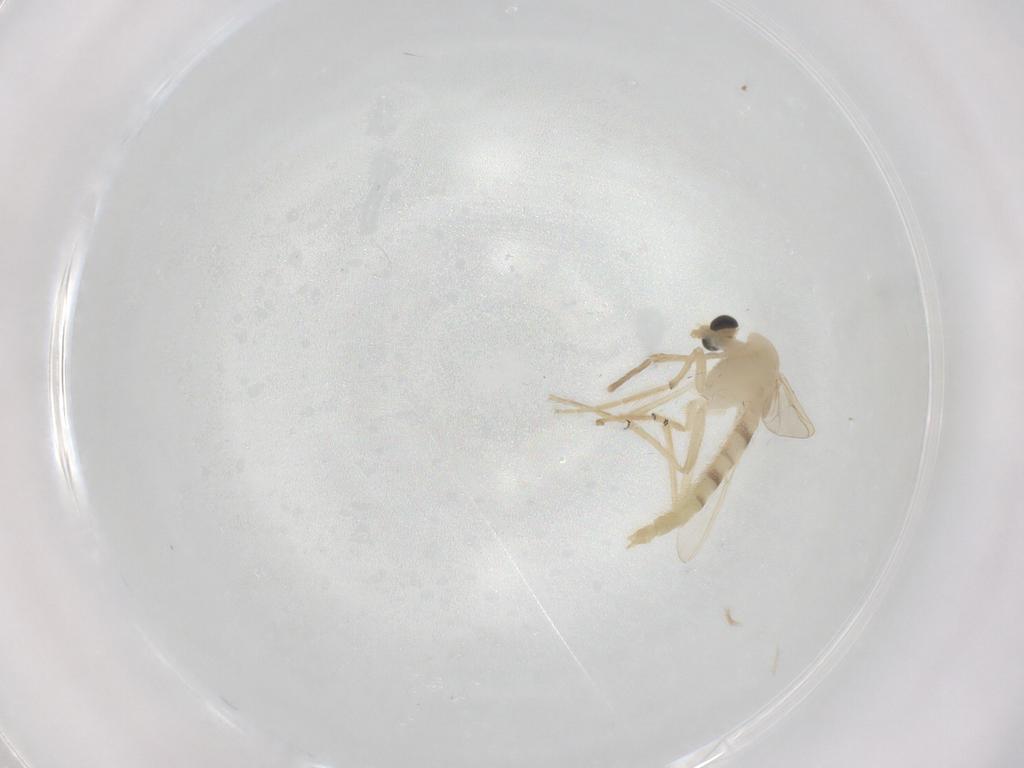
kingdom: Animalia
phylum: Arthropoda
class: Insecta
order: Diptera
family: Chironomidae
